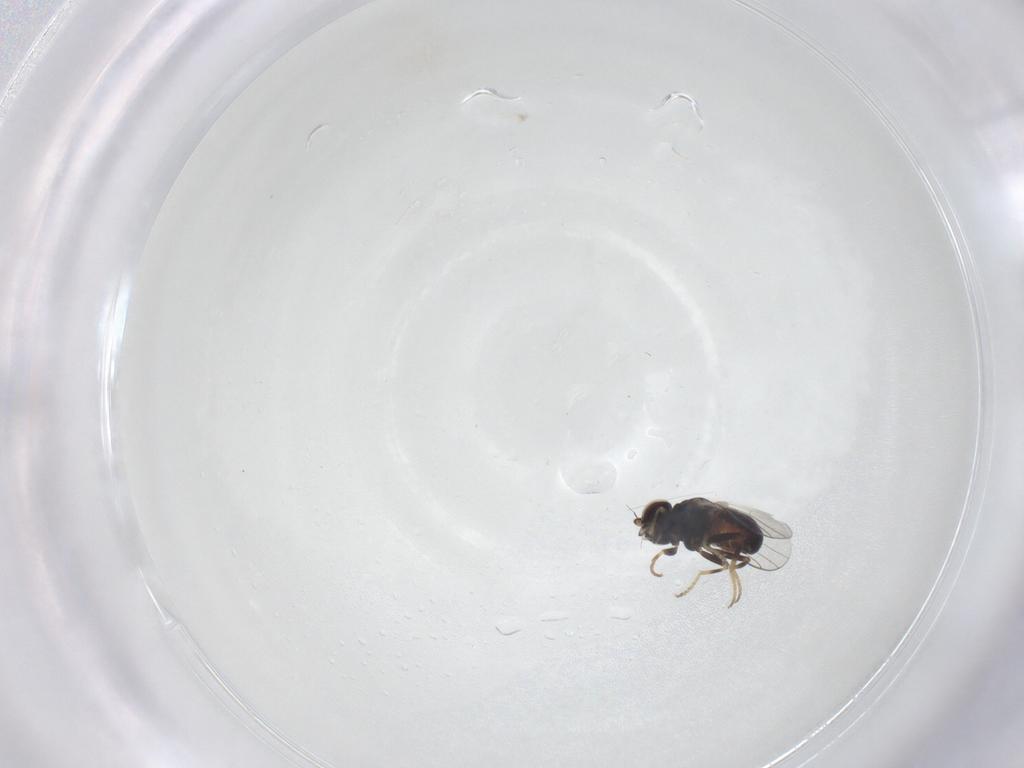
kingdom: Animalia
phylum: Arthropoda
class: Insecta
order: Diptera
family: Chloropidae
